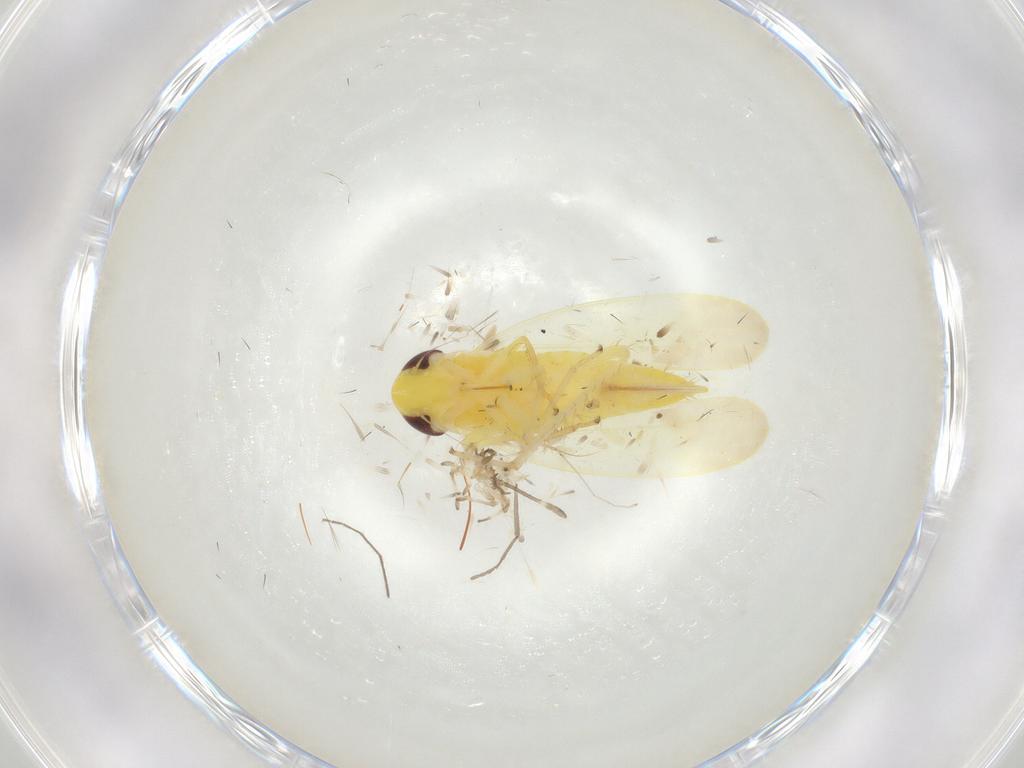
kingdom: Animalia
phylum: Arthropoda
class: Insecta
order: Hemiptera
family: Cicadellidae
